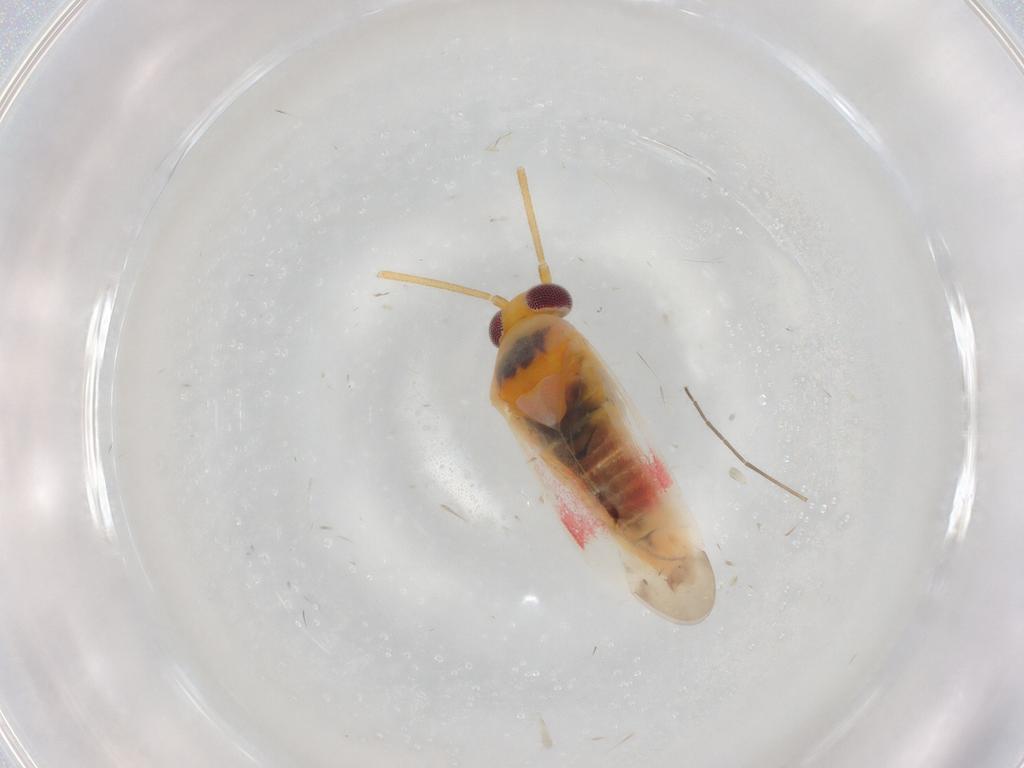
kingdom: Animalia
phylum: Arthropoda
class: Insecta
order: Hemiptera
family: Miridae
